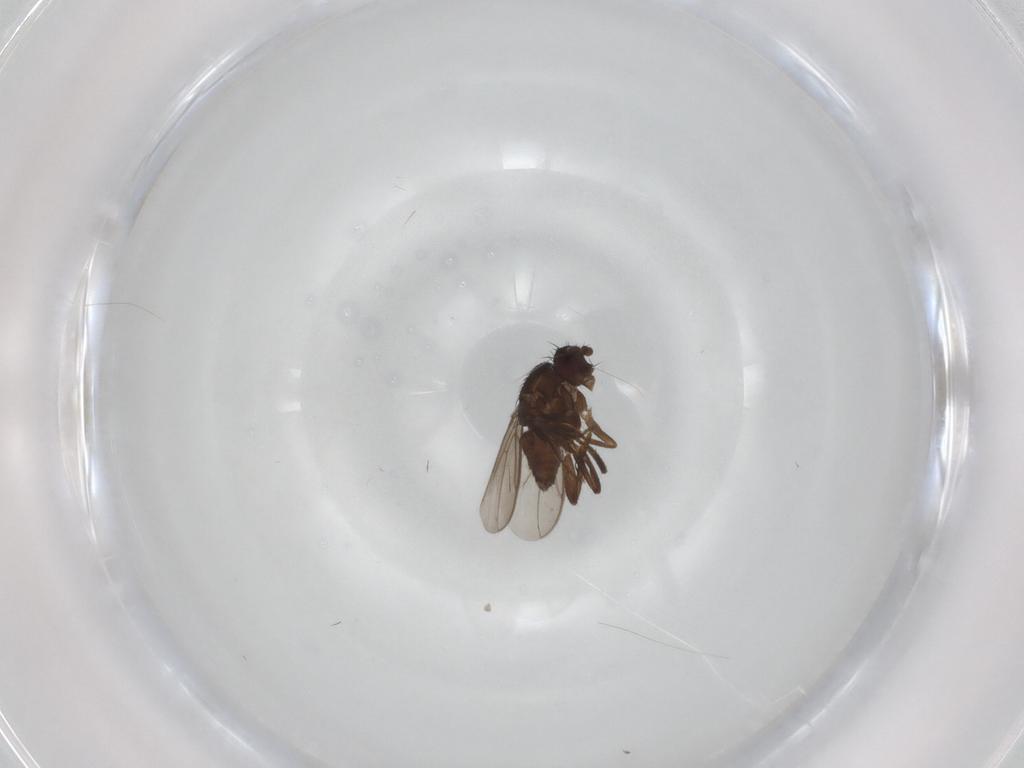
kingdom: Animalia
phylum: Arthropoda
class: Insecta
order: Diptera
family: Sphaeroceridae
